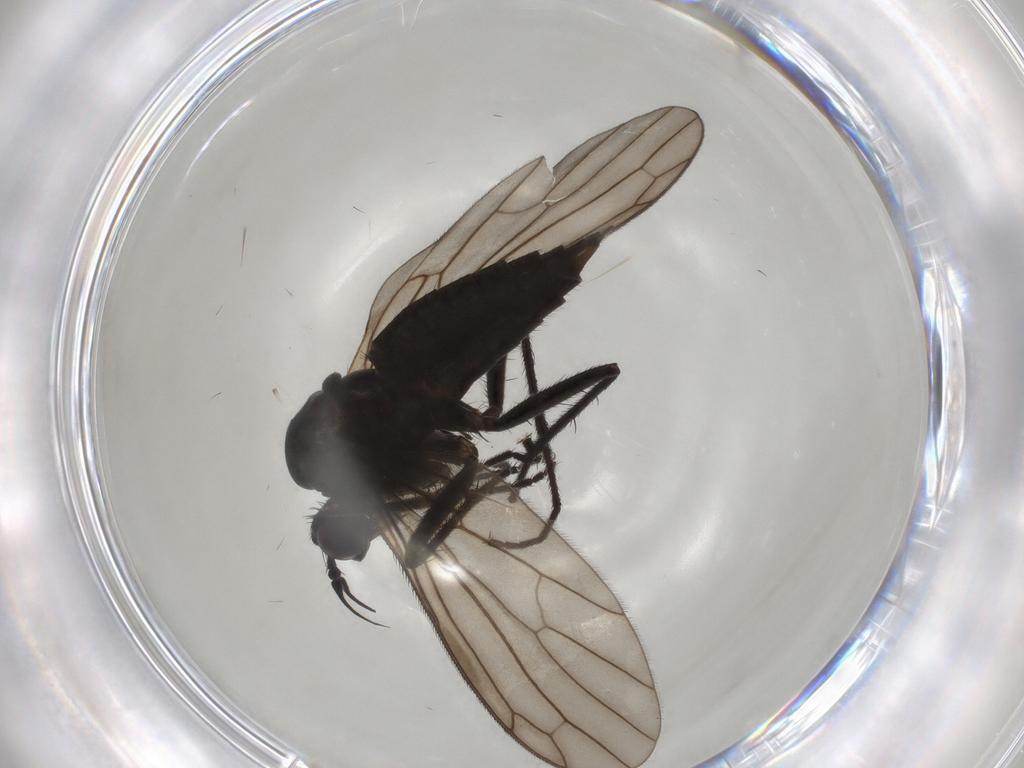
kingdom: Animalia
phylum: Arthropoda
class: Insecta
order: Diptera
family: Empididae
